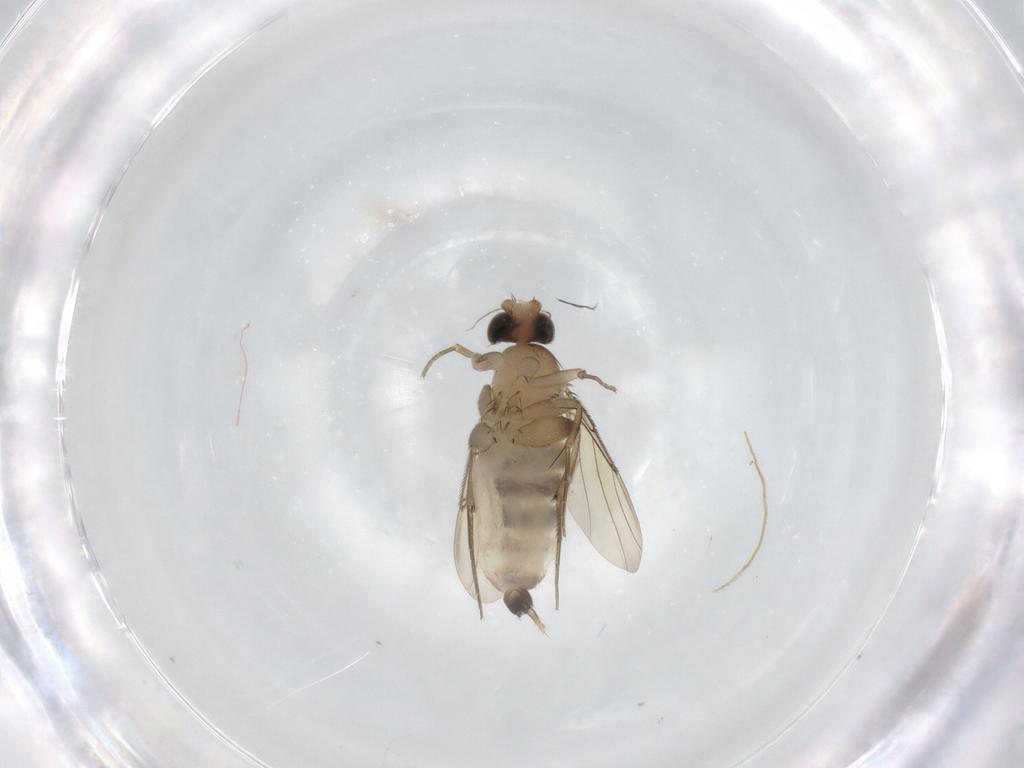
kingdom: Animalia
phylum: Arthropoda
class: Insecta
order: Diptera
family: Phoridae
